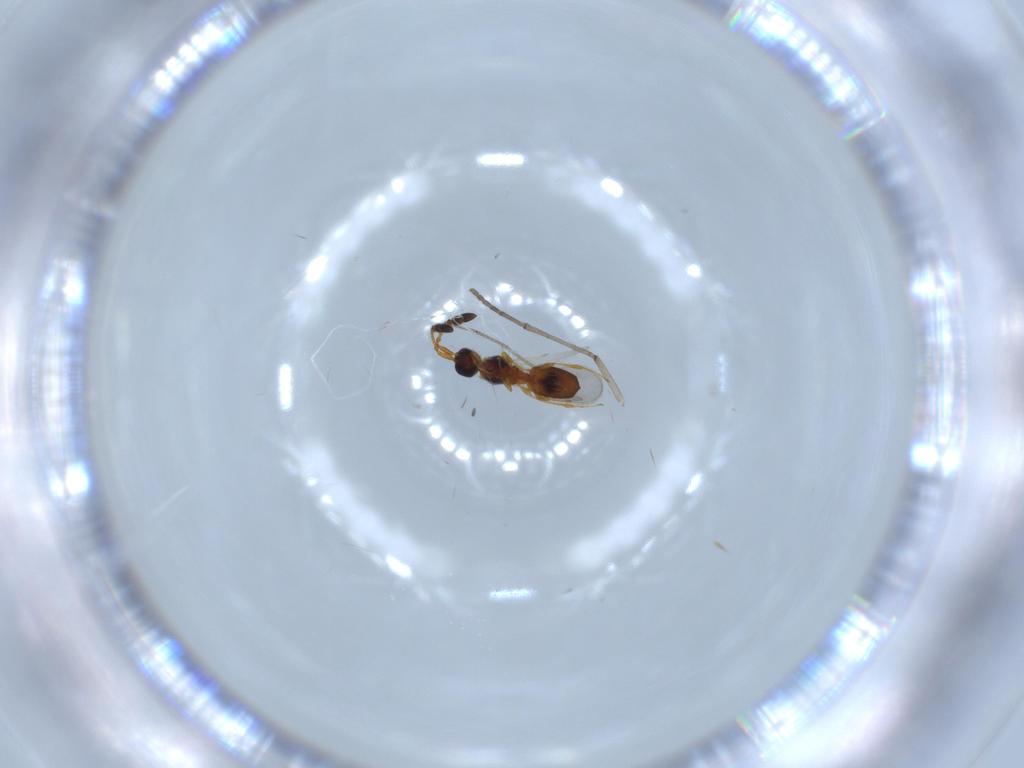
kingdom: Animalia
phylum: Arthropoda
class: Insecta
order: Hymenoptera
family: Diapriidae
